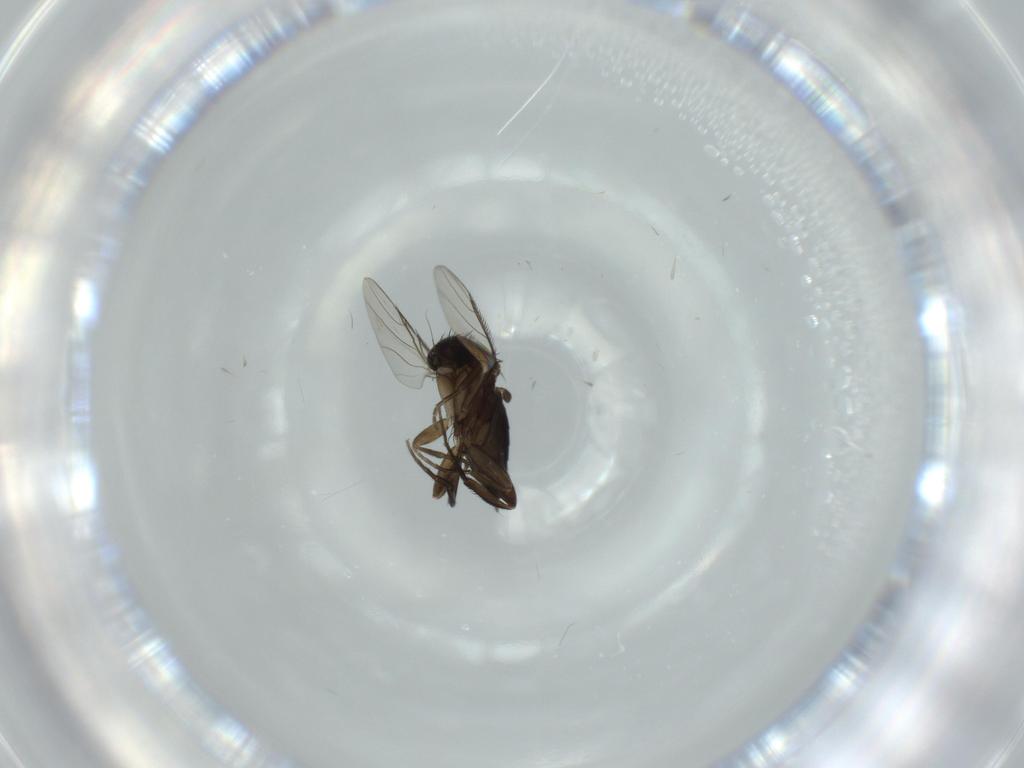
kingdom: Animalia
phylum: Arthropoda
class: Insecta
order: Diptera
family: Phoridae
